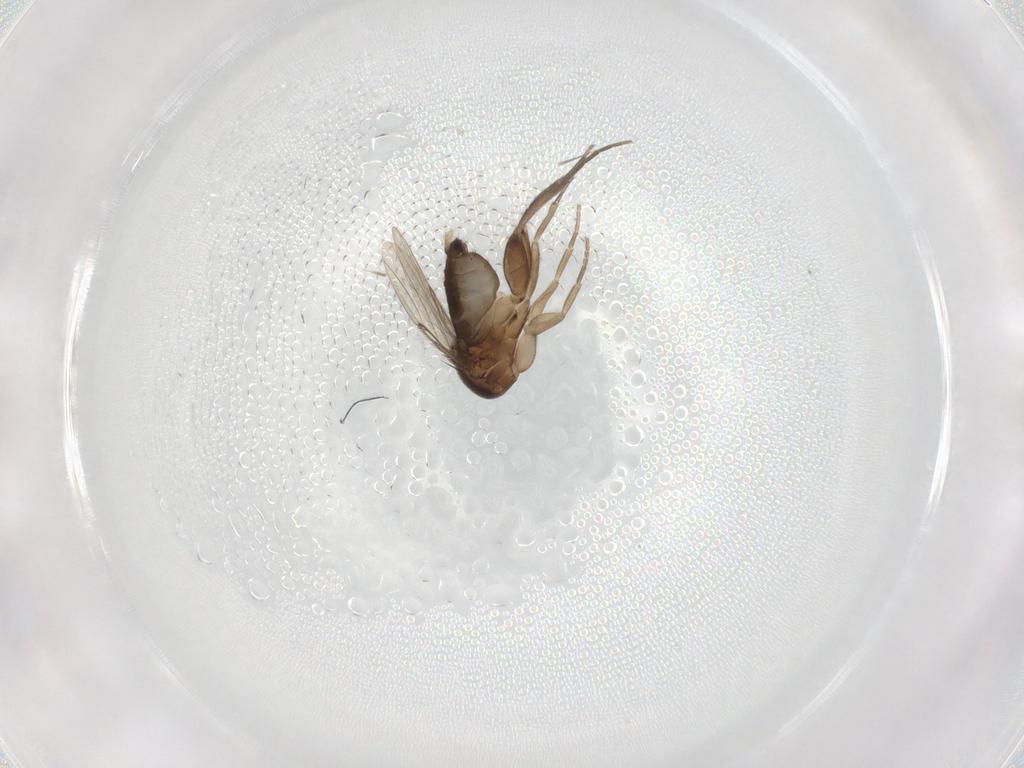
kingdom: Animalia
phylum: Arthropoda
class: Insecta
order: Diptera
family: Phoridae
